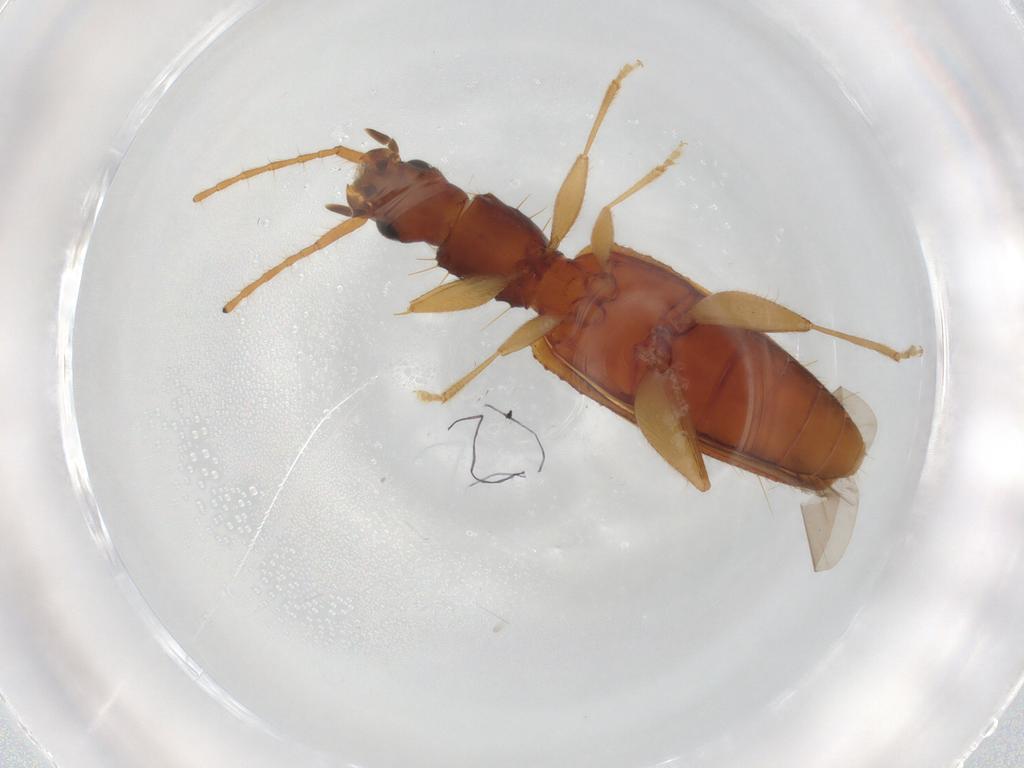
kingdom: Animalia
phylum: Arthropoda
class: Insecta
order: Coleoptera
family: Silvanidae
